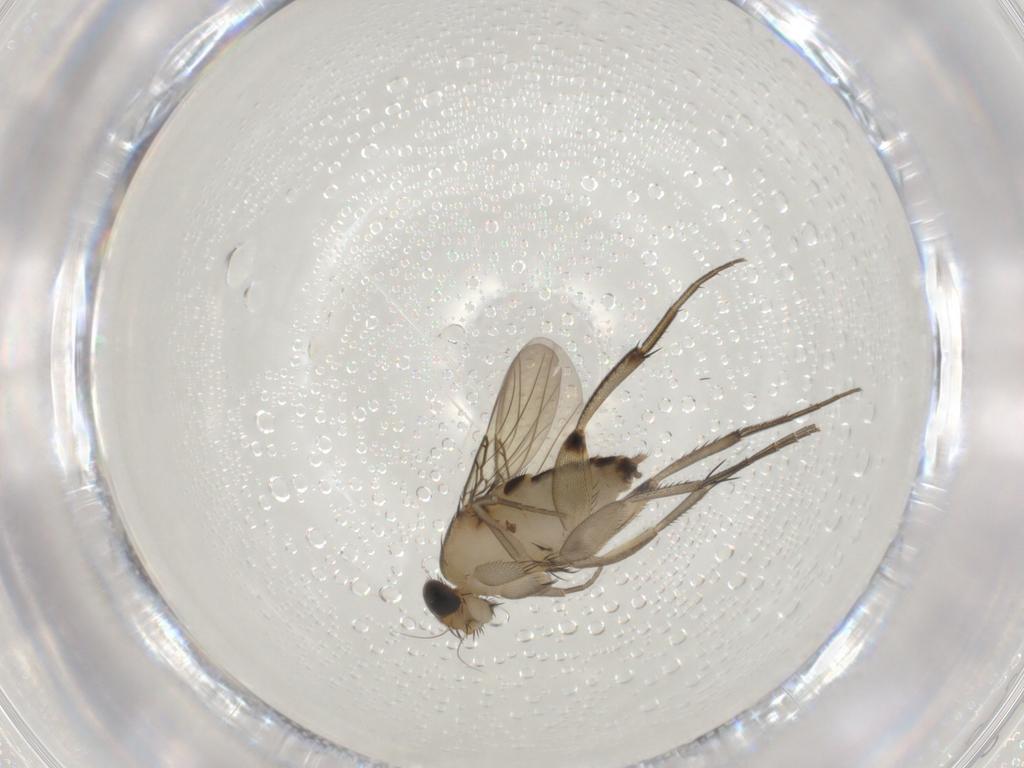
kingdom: Animalia
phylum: Arthropoda
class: Insecta
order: Diptera
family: Phoridae
